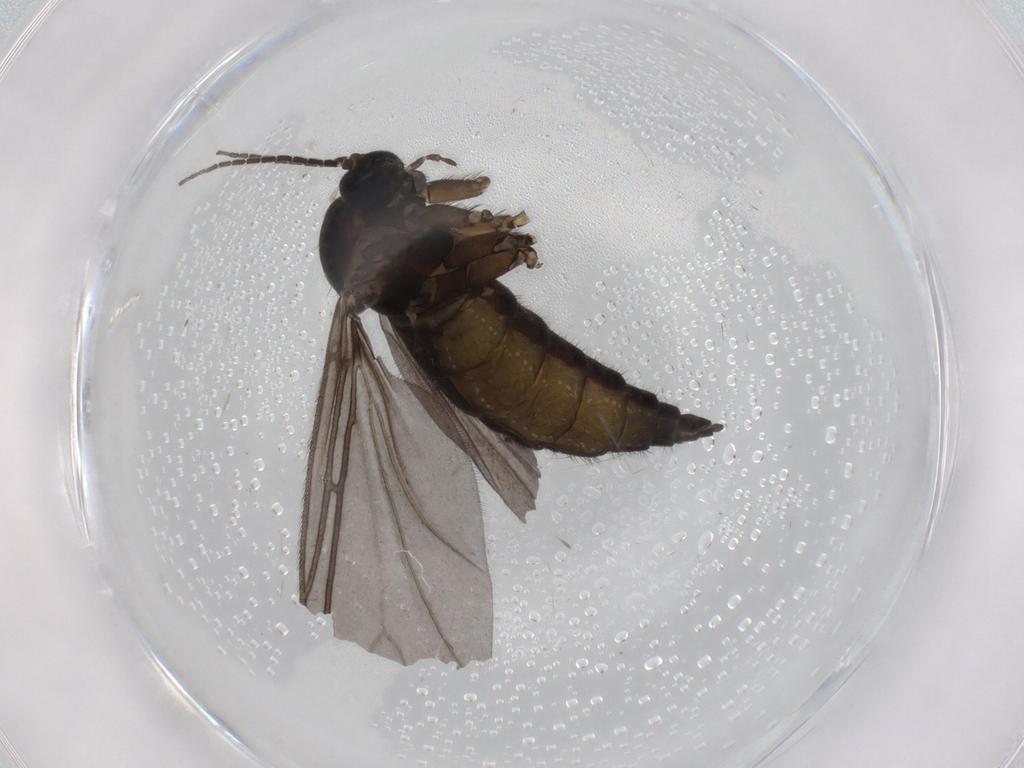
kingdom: Animalia
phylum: Arthropoda
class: Insecta
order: Diptera
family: Sciaridae
